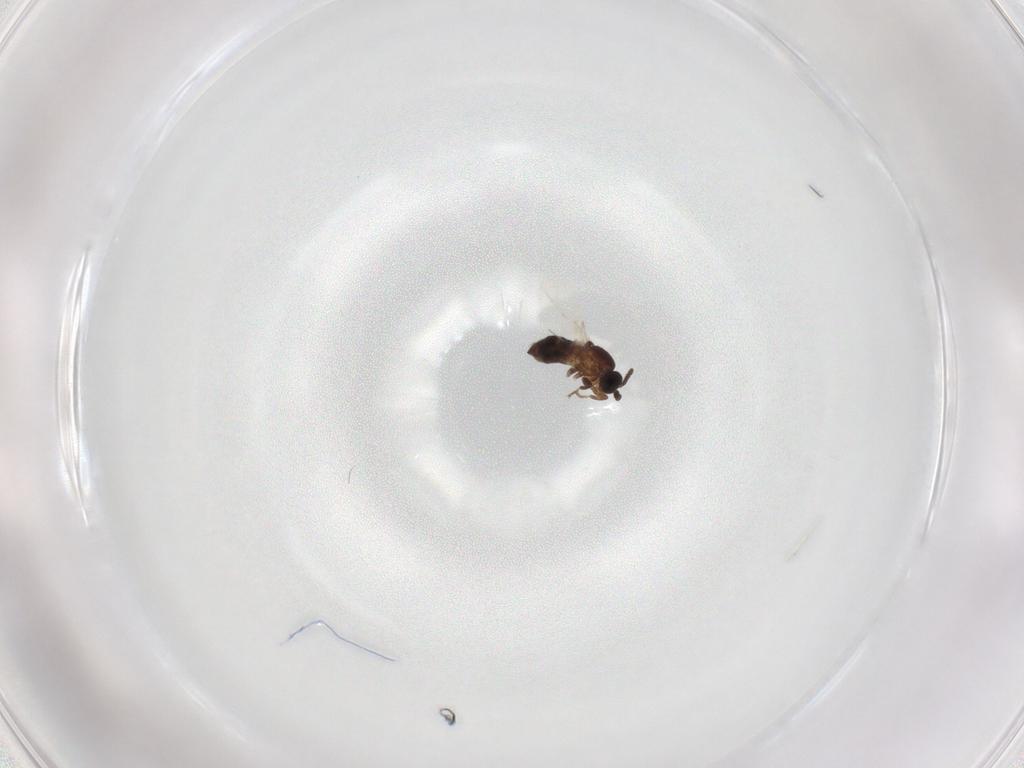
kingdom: Animalia
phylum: Arthropoda
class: Insecta
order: Diptera
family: Scatopsidae
